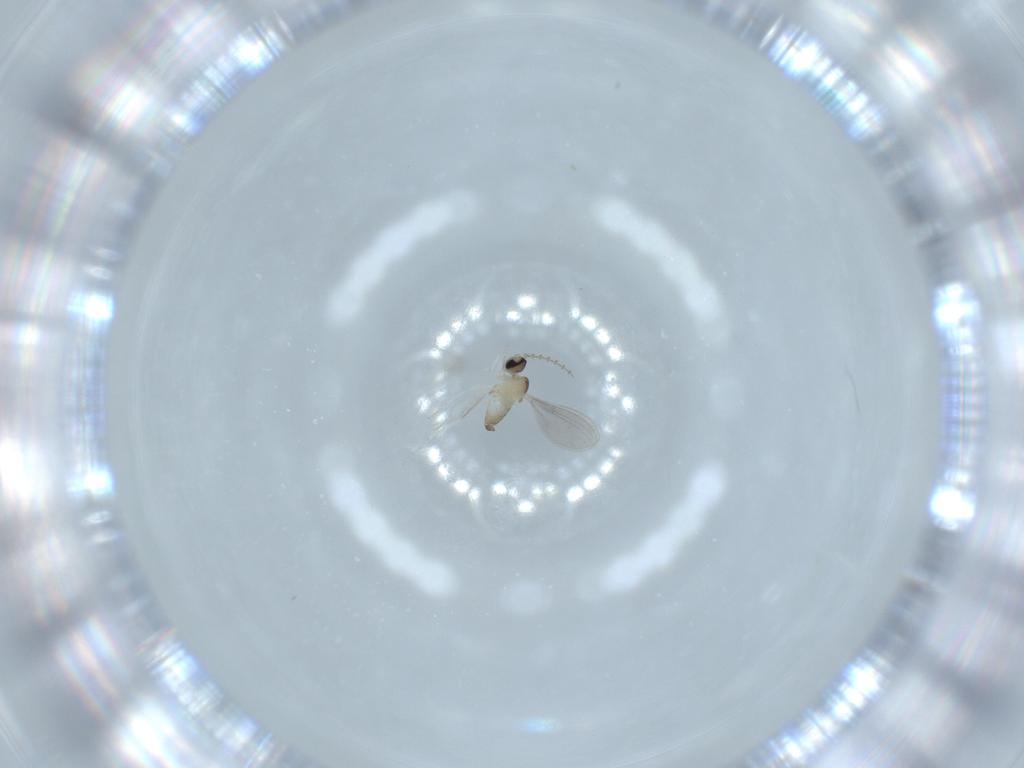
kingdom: Animalia
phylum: Arthropoda
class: Insecta
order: Diptera
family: Cecidomyiidae
